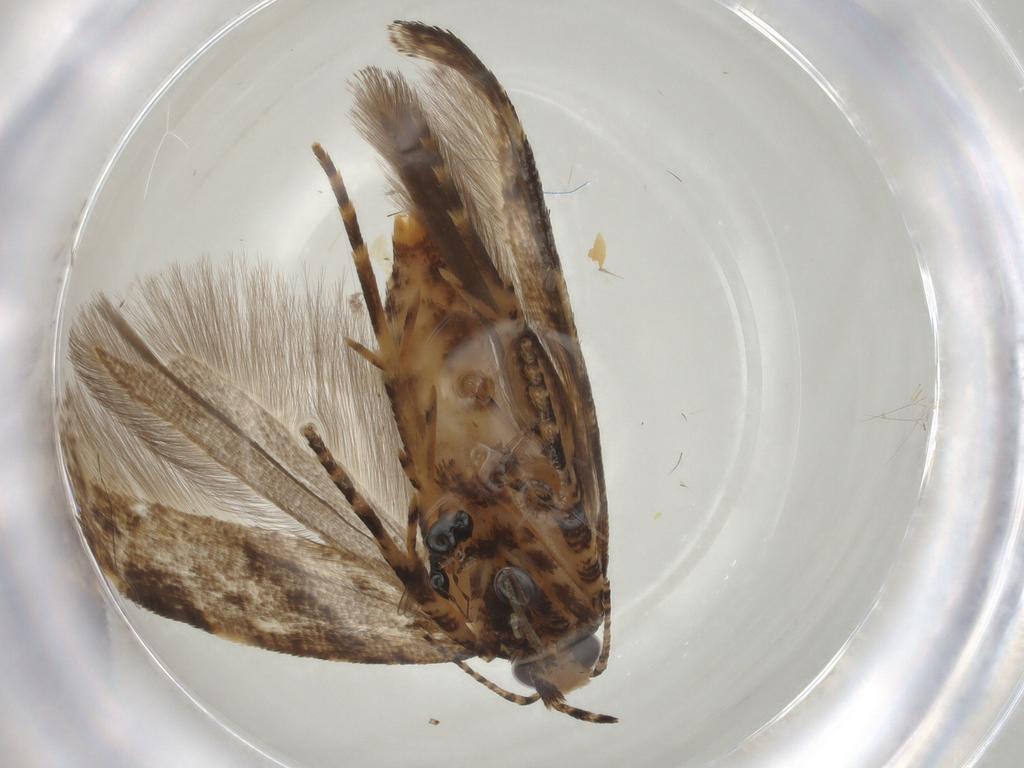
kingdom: Animalia
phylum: Arthropoda
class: Insecta
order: Lepidoptera
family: Gelechiidae
